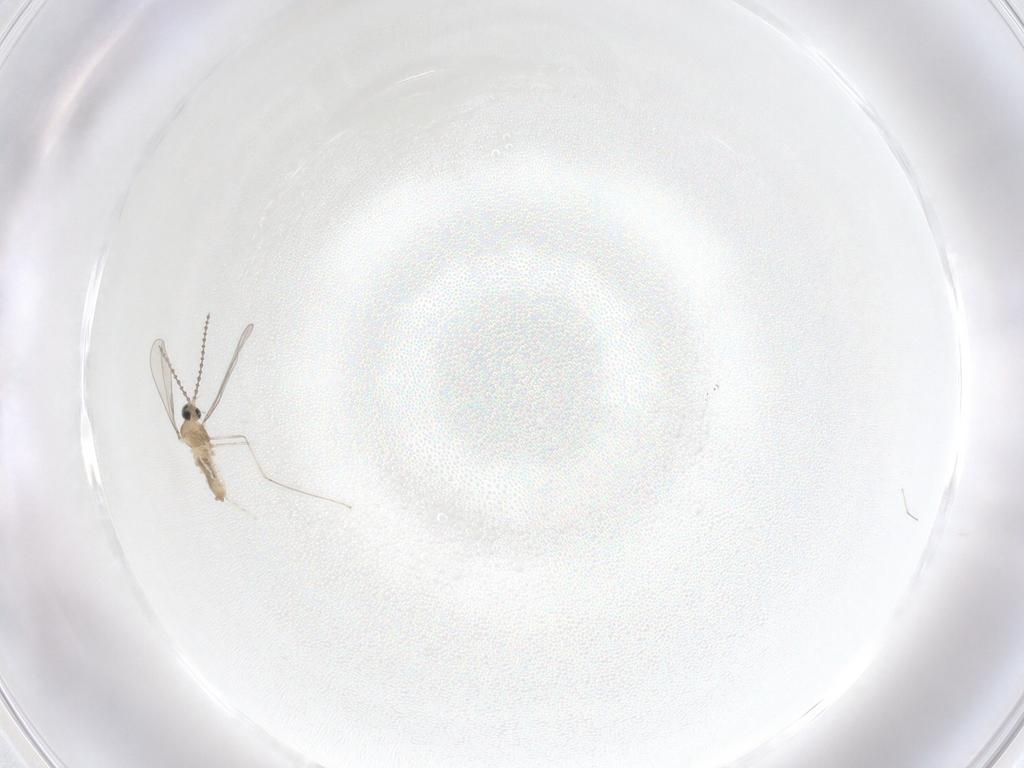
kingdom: Animalia
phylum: Arthropoda
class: Insecta
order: Diptera
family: Cecidomyiidae
